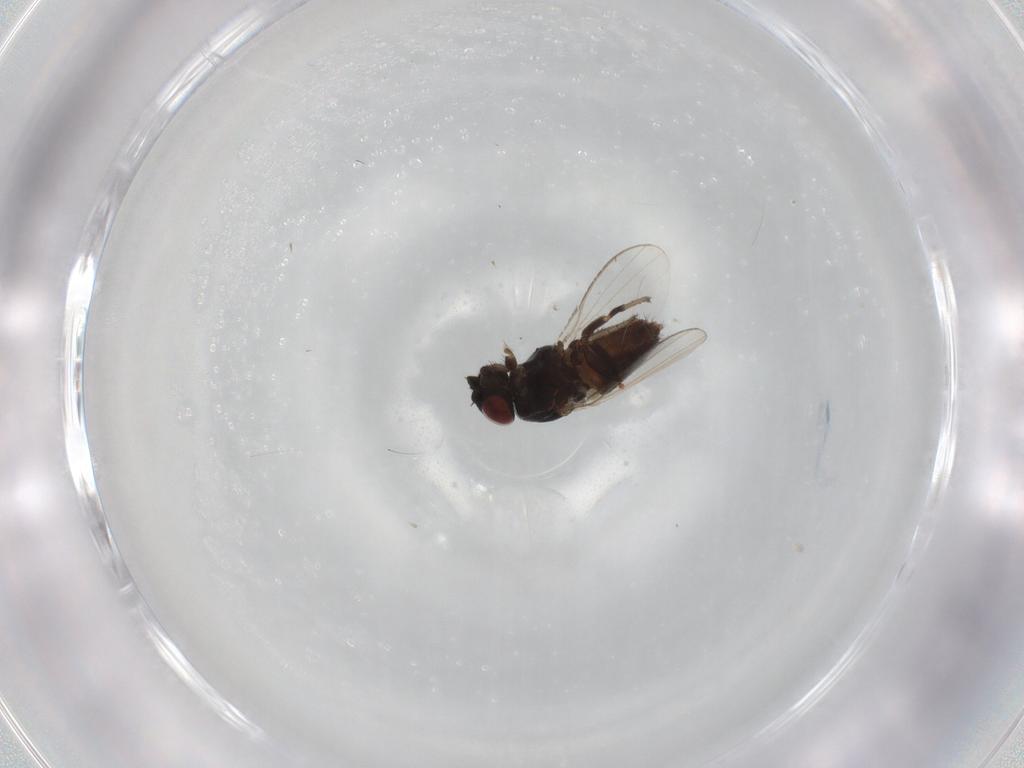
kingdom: Animalia
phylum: Arthropoda
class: Insecta
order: Diptera
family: Milichiidae
